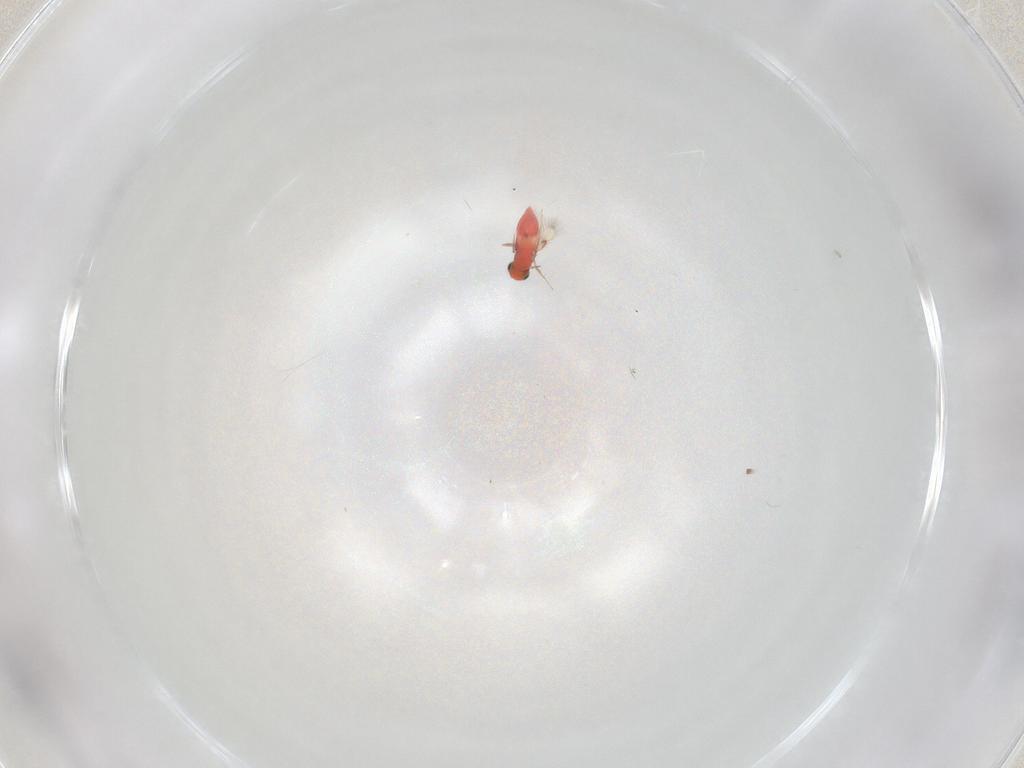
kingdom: Animalia
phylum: Arthropoda
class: Insecta
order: Hymenoptera
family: Trichogrammatidae
